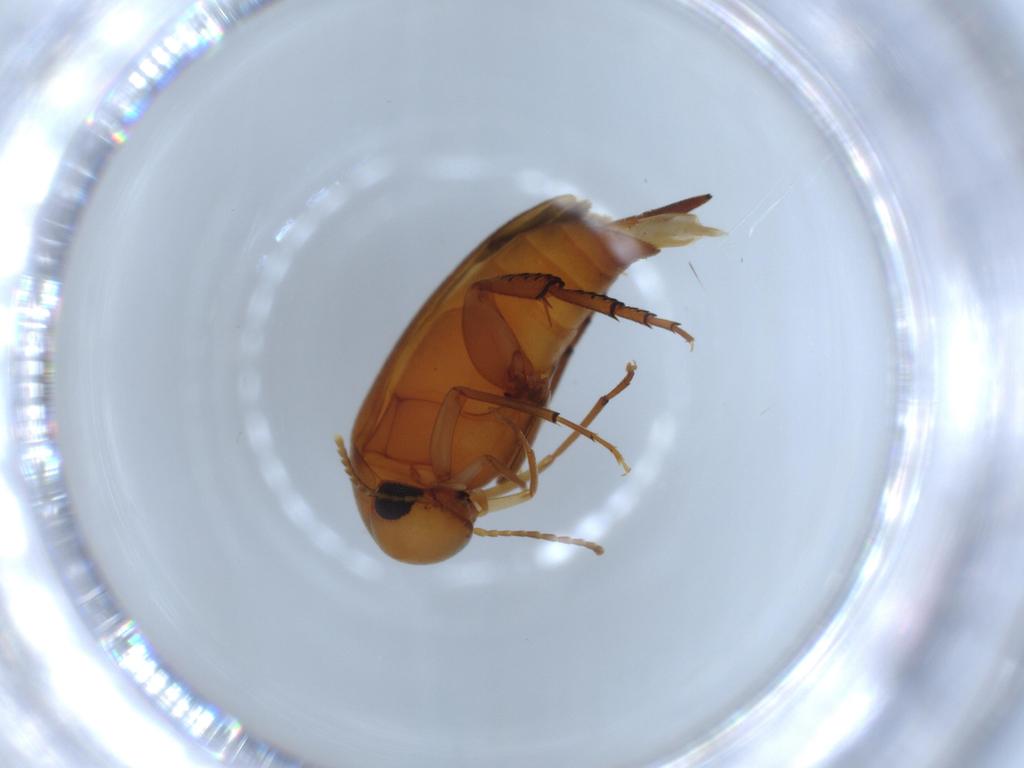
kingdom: Animalia
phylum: Arthropoda
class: Insecta
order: Coleoptera
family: Mordellidae
